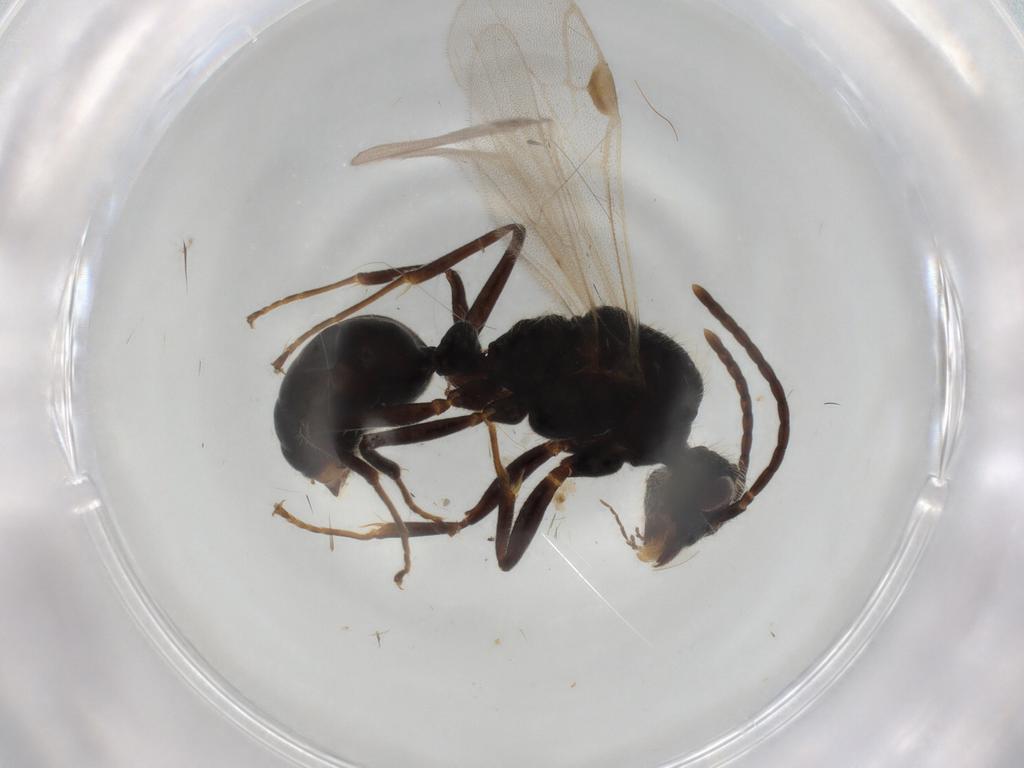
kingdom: Animalia
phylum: Arthropoda
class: Insecta
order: Hymenoptera
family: Formicidae
